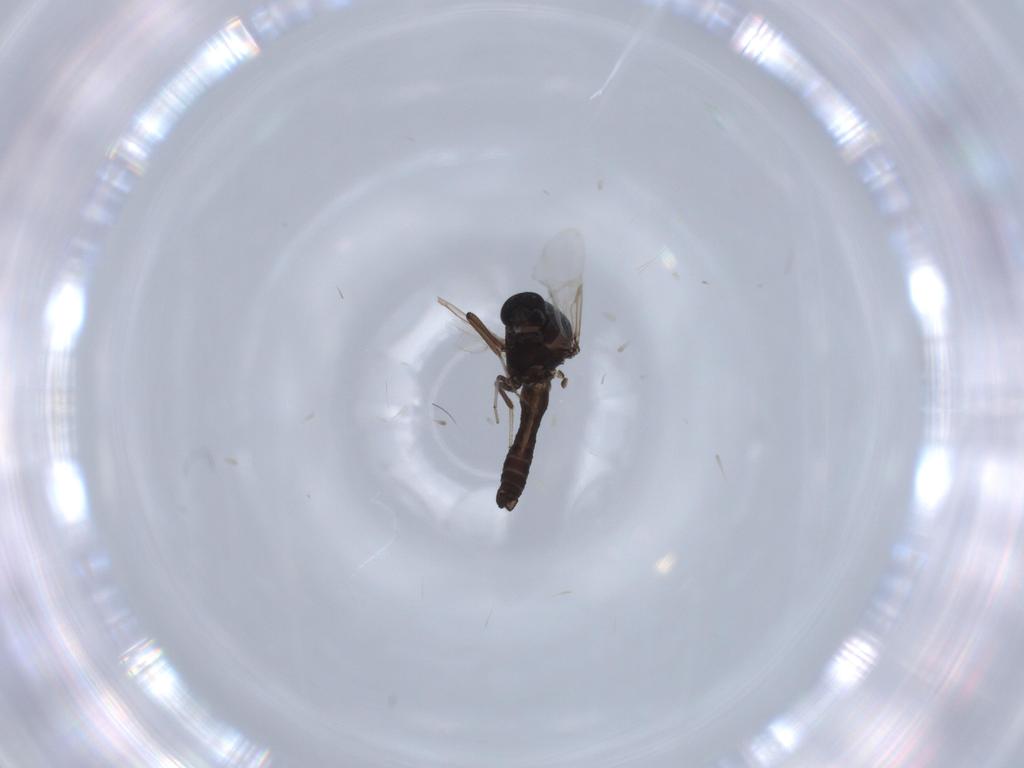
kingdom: Animalia
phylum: Arthropoda
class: Insecta
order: Diptera
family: Ceratopogonidae
